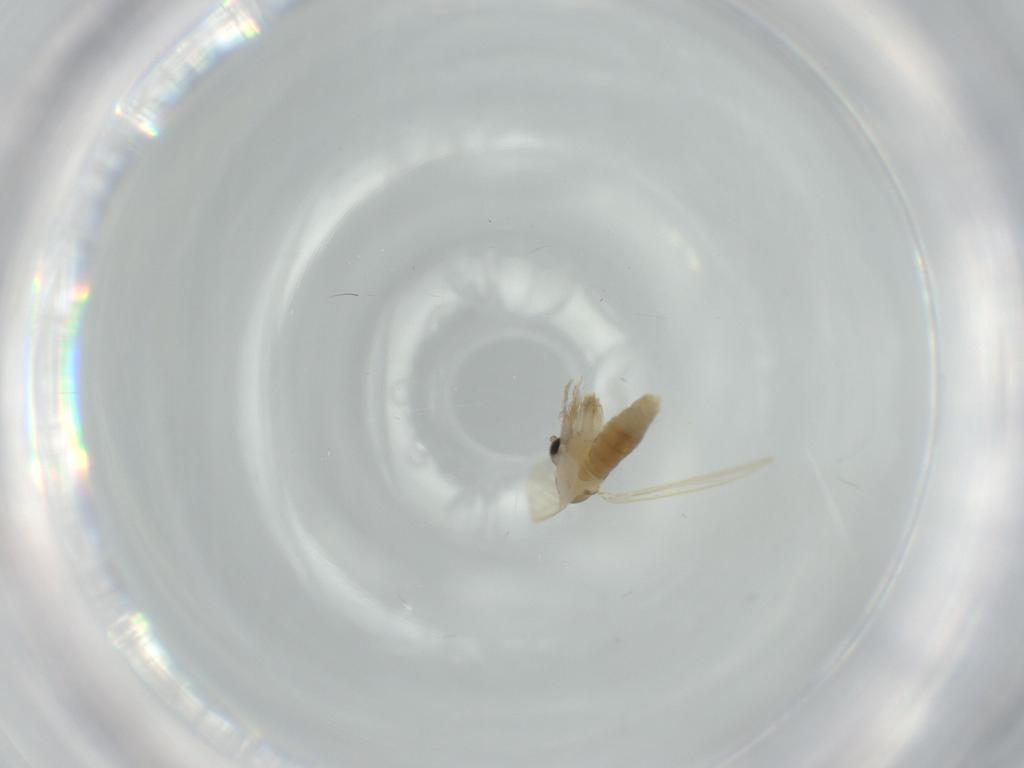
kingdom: Animalia
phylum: Arthropoda
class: Insecta
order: Diptera
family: Psychodidae
